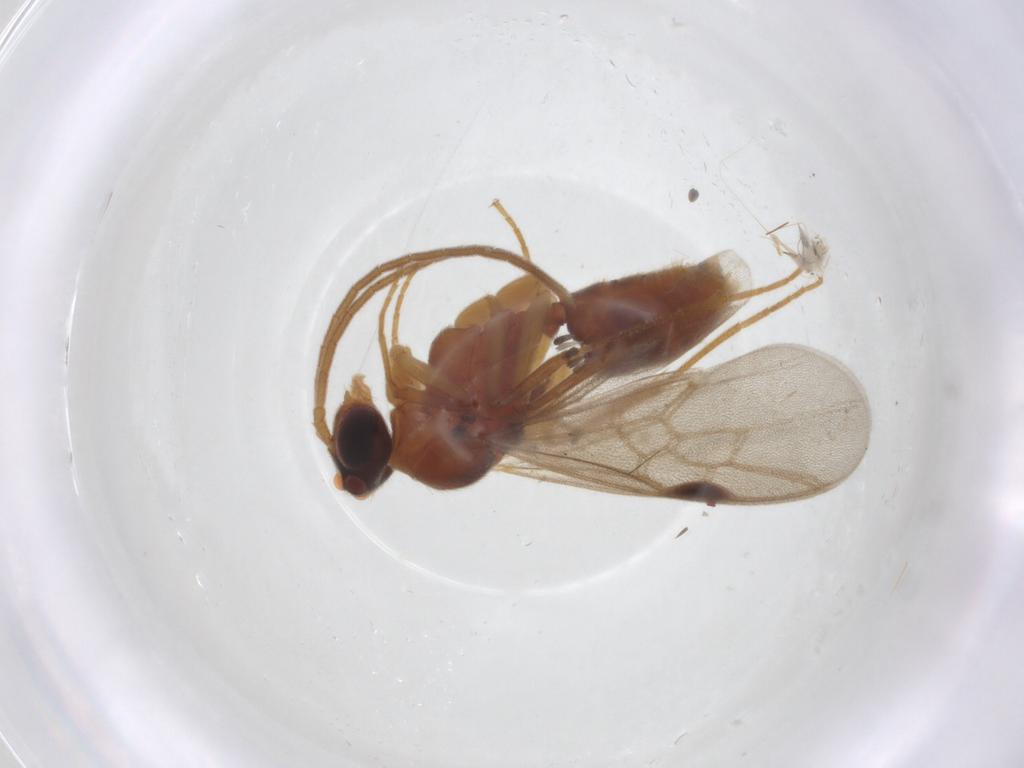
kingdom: Animalia
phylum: Arthropoda
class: Insecta
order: Hymenoptera
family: Formicidae
